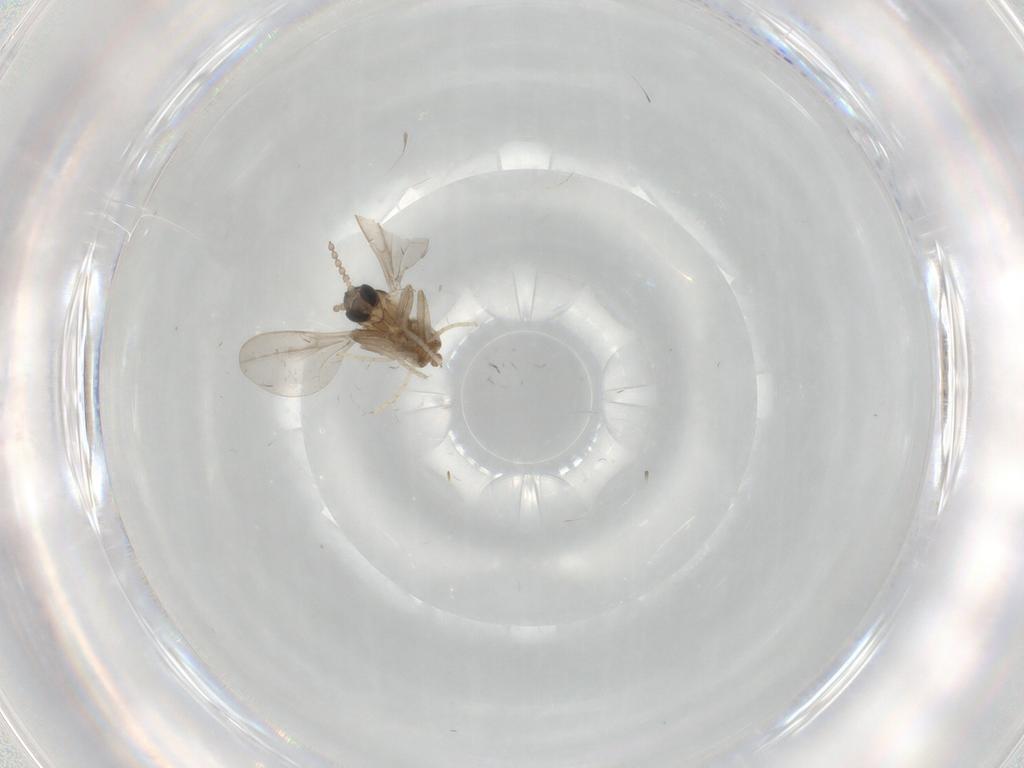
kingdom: Animalia
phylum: Arthropoda
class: Insecta
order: Diptera
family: Cecidomyiidae
